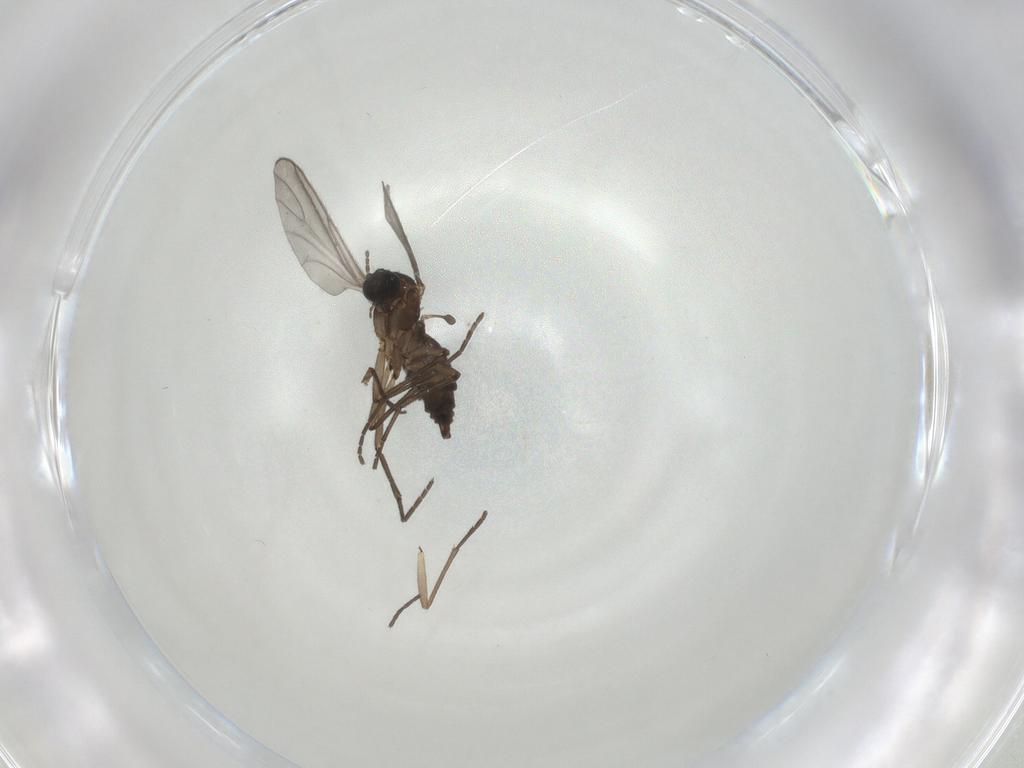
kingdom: Animalia
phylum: Arthropoda
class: Insecta
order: Diptera
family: Sciaridae
